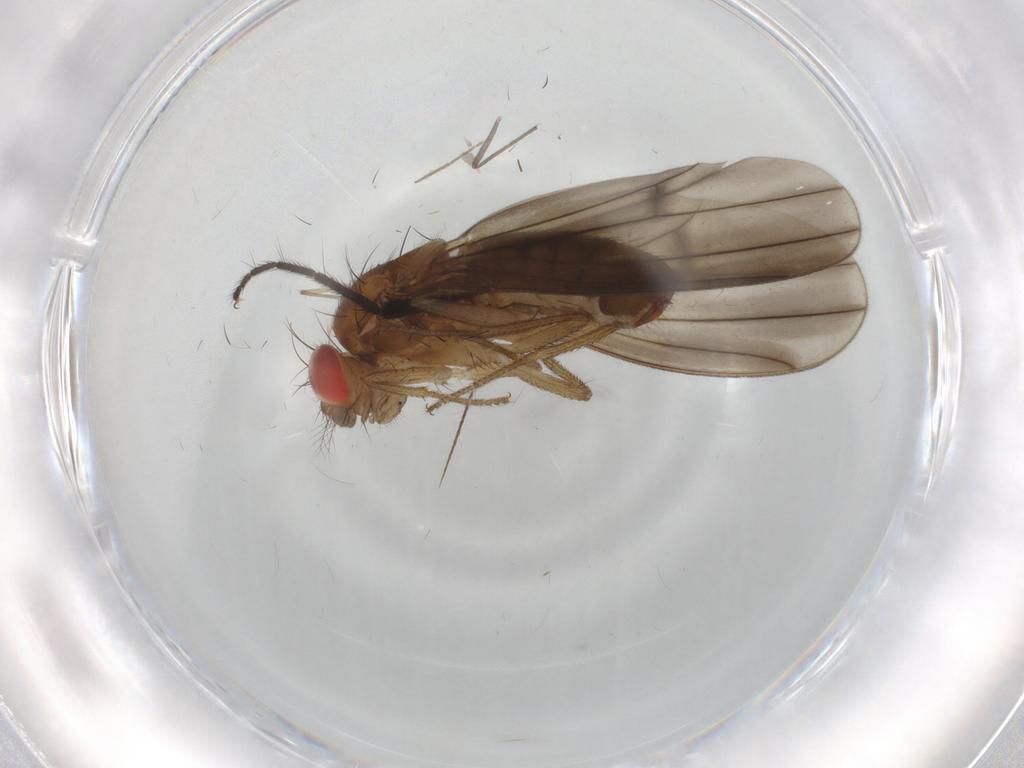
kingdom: Animalia
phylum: Arthropoda
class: Insecta
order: Diptera
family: Drosophilidae
